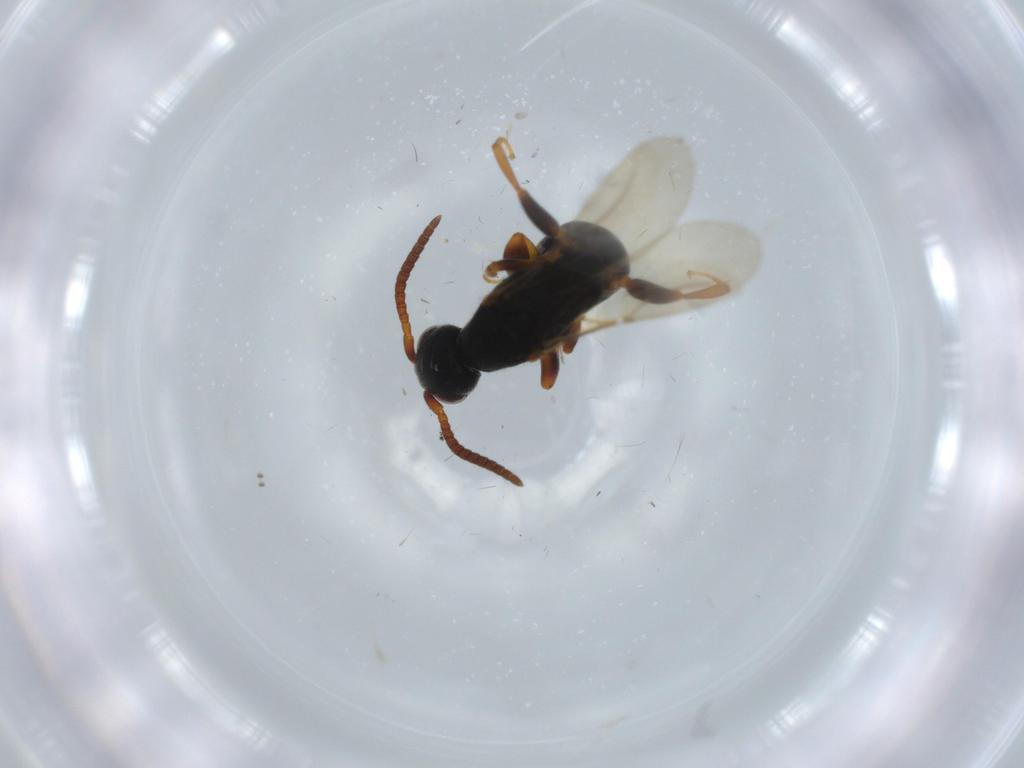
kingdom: Animalia
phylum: Arthropoda
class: Insecta
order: Hymenoptera
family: Bethylidae
